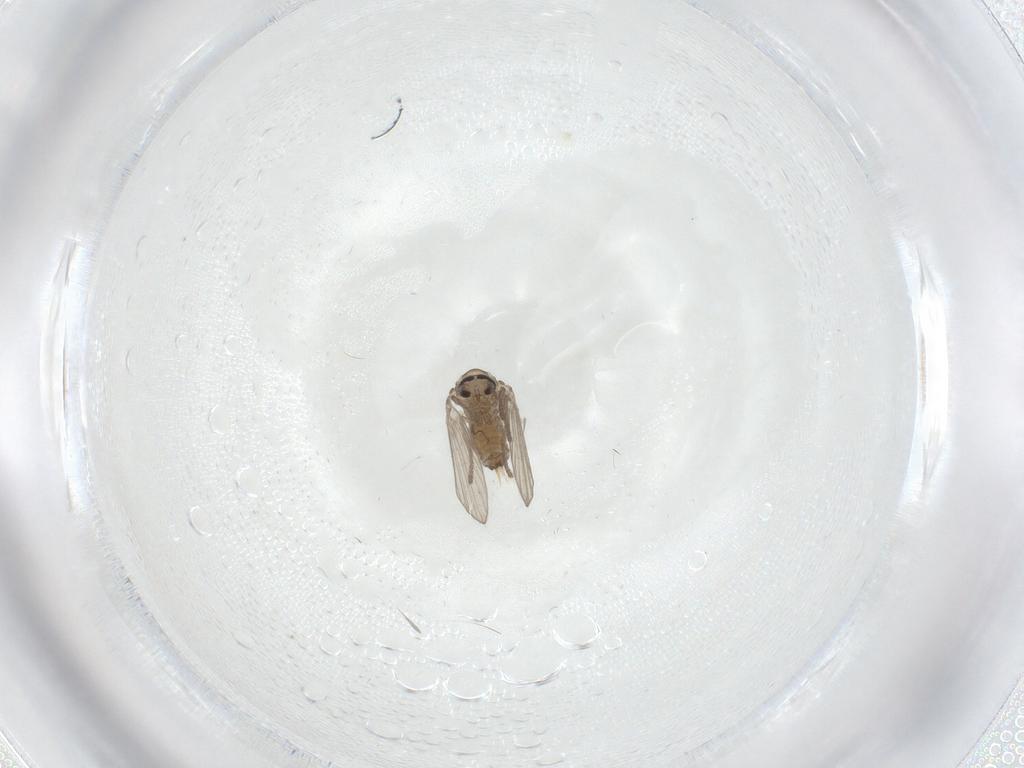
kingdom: Animalia
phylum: Arthropoda
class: Insecta
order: Diptera
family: Psychodidae
